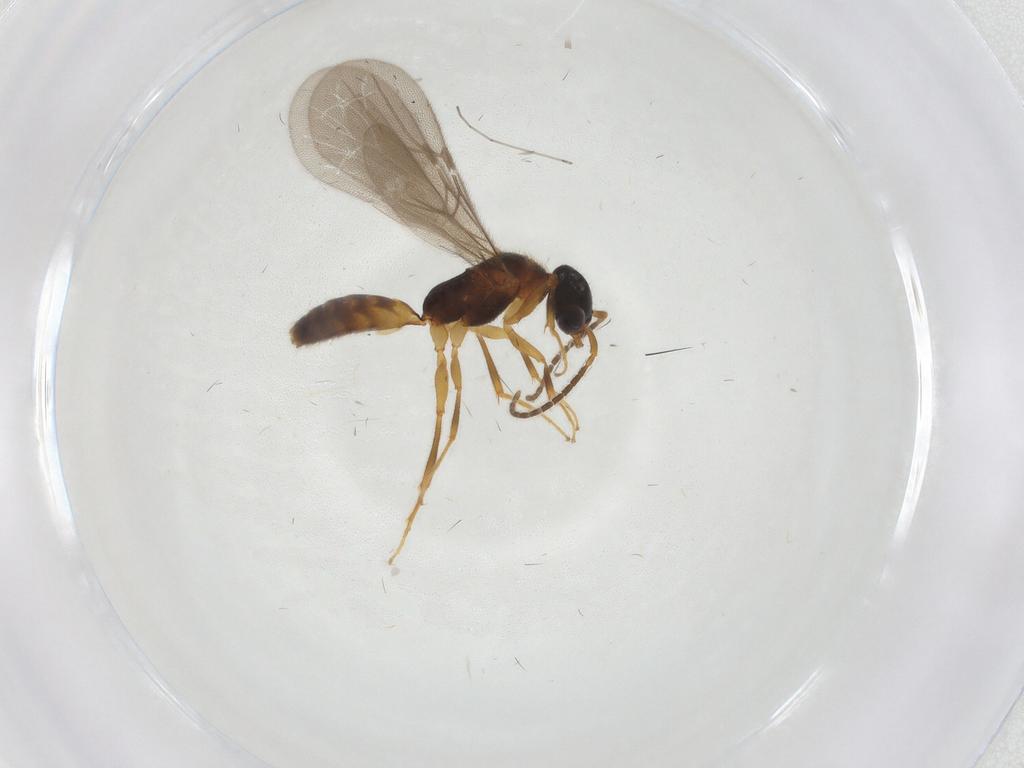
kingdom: Animalia
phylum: Arthropoda
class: Insecta
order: Hymenoptera
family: Bethylidae
